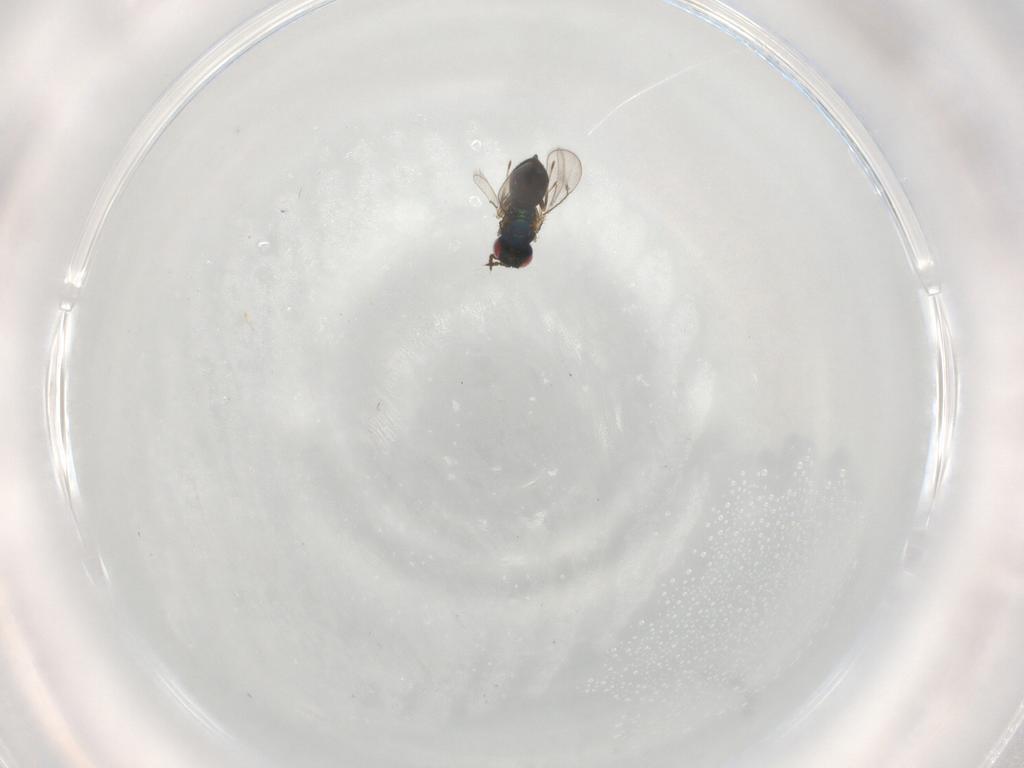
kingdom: Animalia
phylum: Arthropoda
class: Insecta
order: Hymenoptera
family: Eulophidae
